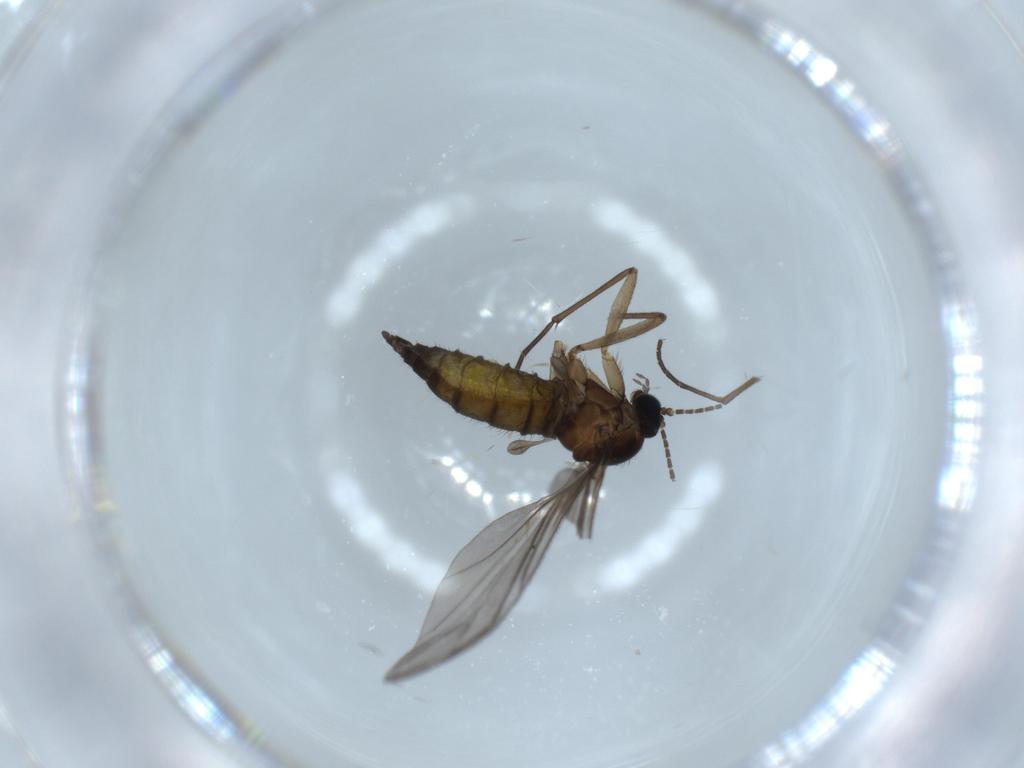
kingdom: Animalia
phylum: Arthropoda
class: Insecta
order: Diptera
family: Sciaridae
